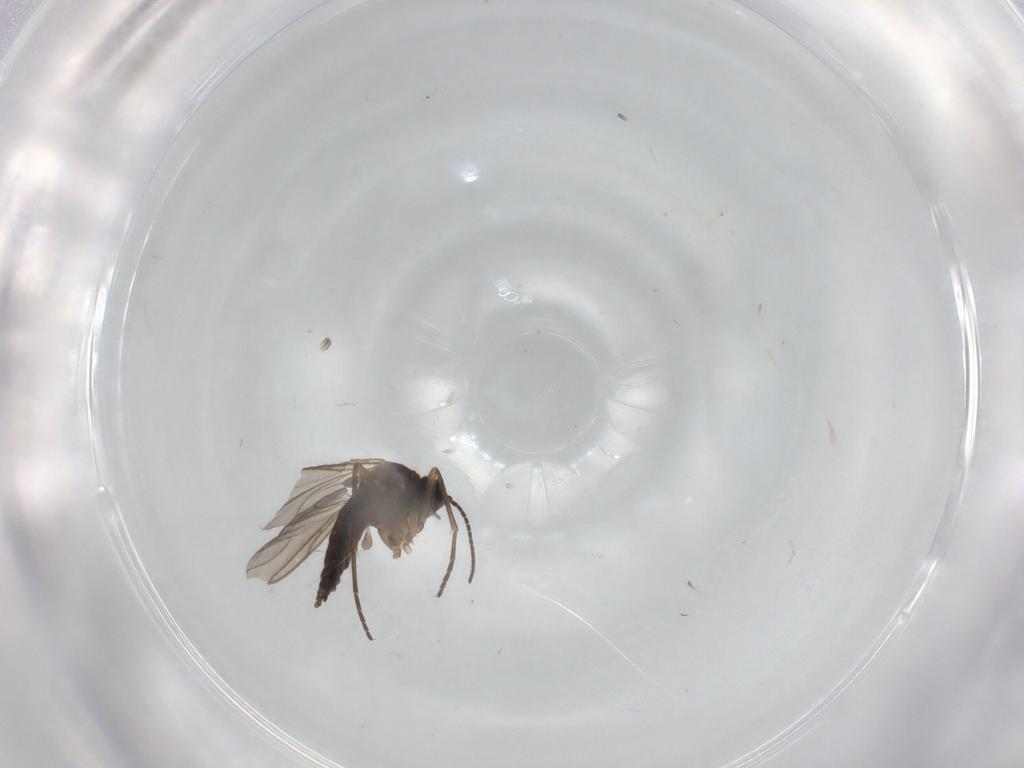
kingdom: Animalia
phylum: Arthropoda
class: Insecta
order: Diptera
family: Sciaridae
